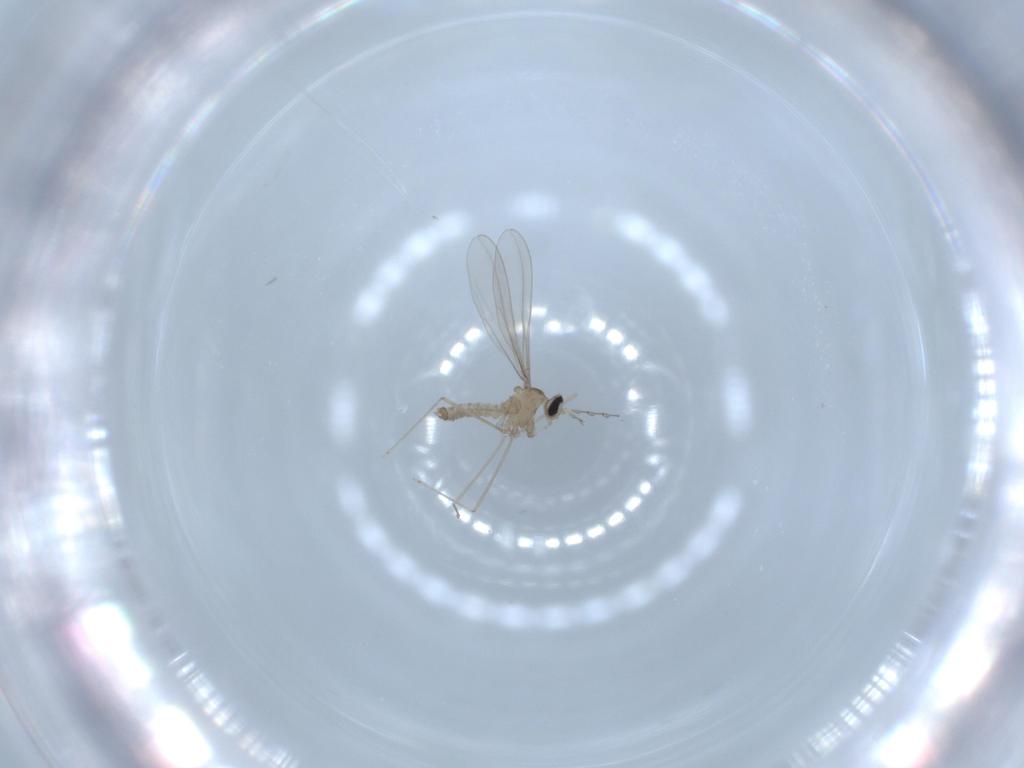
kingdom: Animalia
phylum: Arthropoda
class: Insecta
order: Diptera
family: Cecidomyiidae
